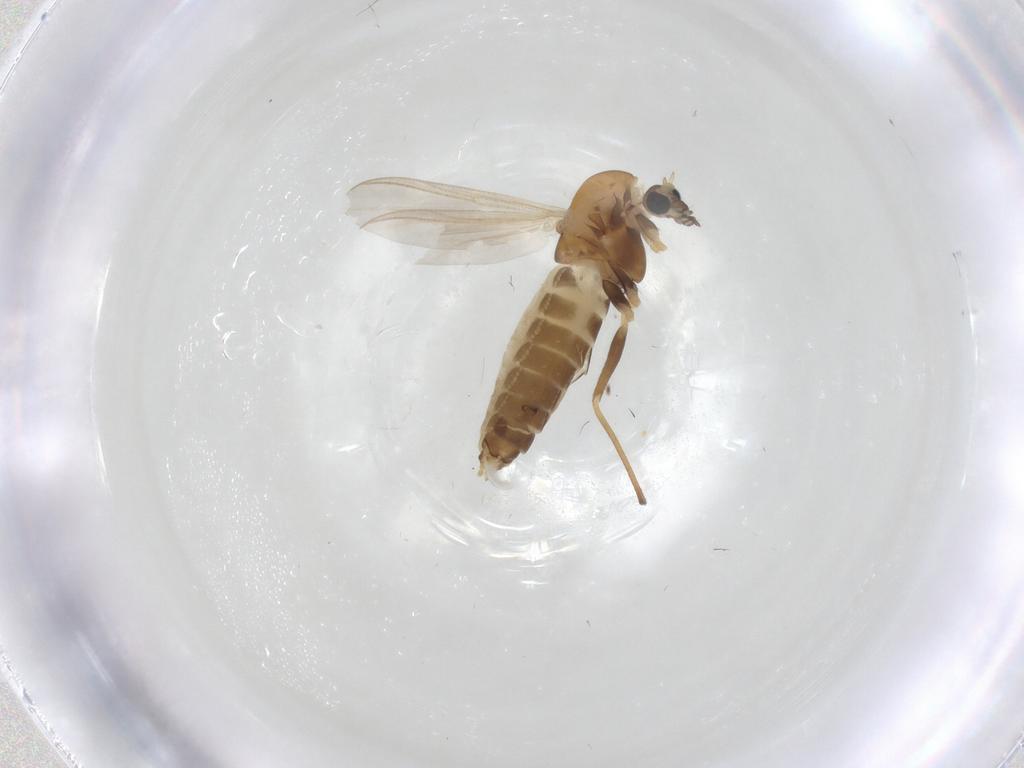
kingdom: Animalia
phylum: Arthropoda
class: Insecta
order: Diptera
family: Chironomidae
